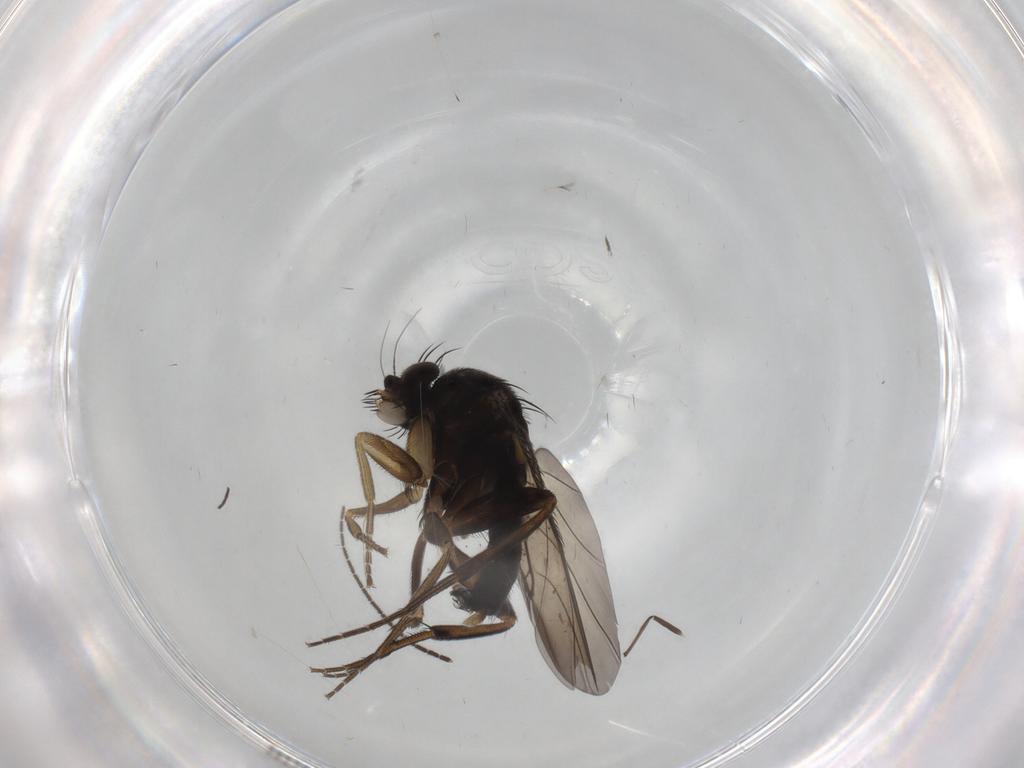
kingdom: Animalia
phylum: Arthropoda
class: Insecta
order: Diptera
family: Phoridae
